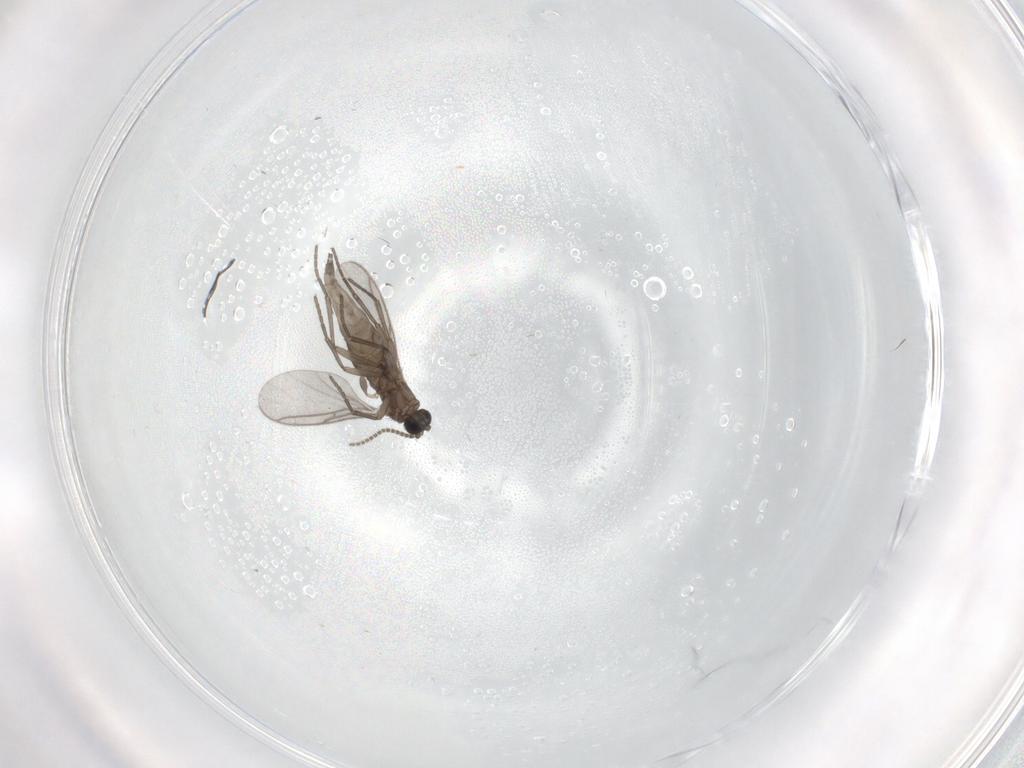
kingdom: Animalia
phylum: Arthropoda
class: Insecta
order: Diptera
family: Sciaridae
